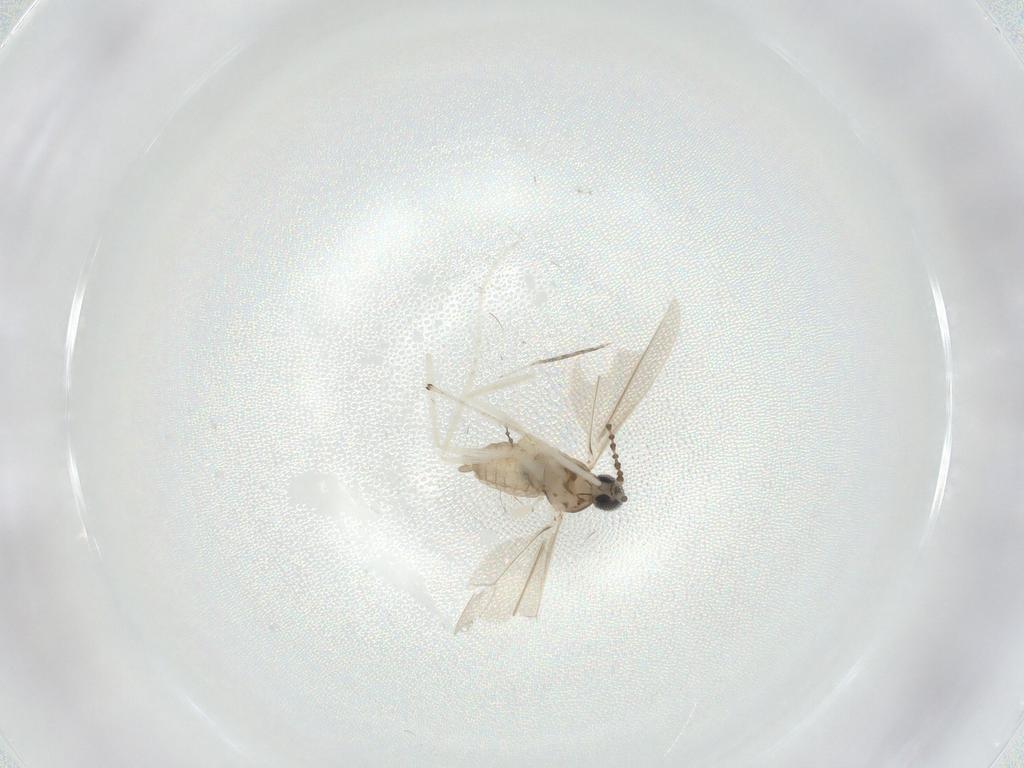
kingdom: Animalia
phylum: Arthropoda
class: Insecta
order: Diptera
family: Cecidomyiidae
